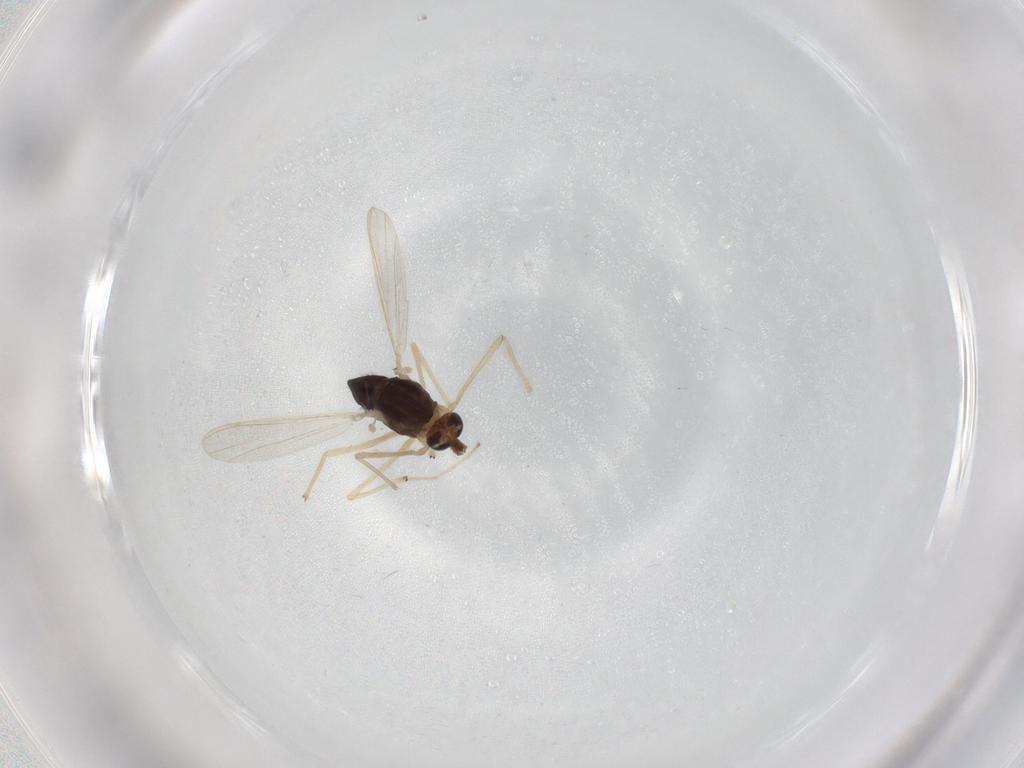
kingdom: Animalia
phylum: Arthropoda
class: Insecta
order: Diptera
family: Chironomidae
